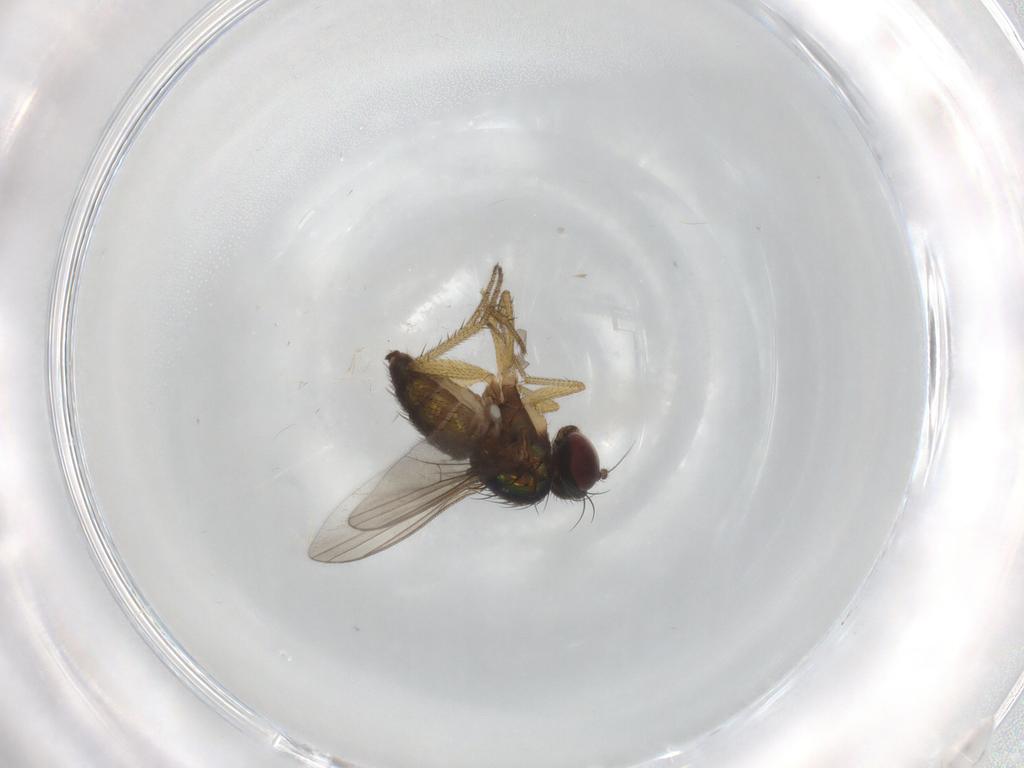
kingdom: Animalia
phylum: Arthropoda
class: Insecta
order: Diptera
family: Dolichopodidae
